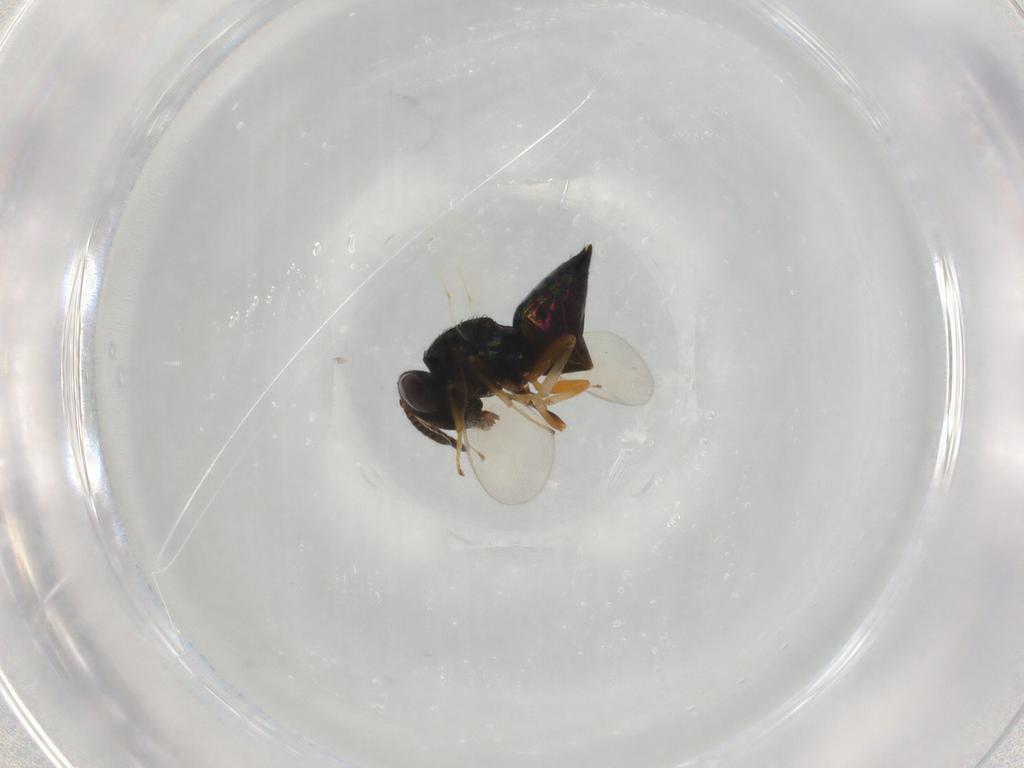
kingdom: Animalia
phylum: Arthropoda
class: Insecta
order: Hymenoptera
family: Pteromalidae
